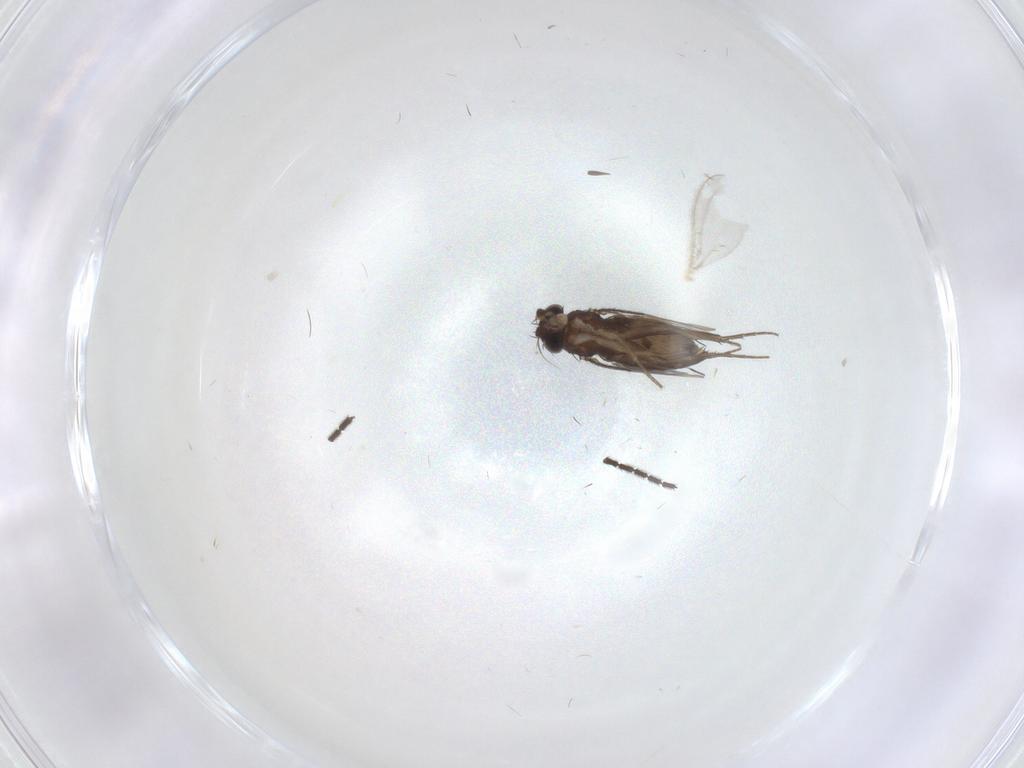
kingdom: Animalia
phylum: Arthropoda
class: Insecta
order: Diptera
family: Phoridae
